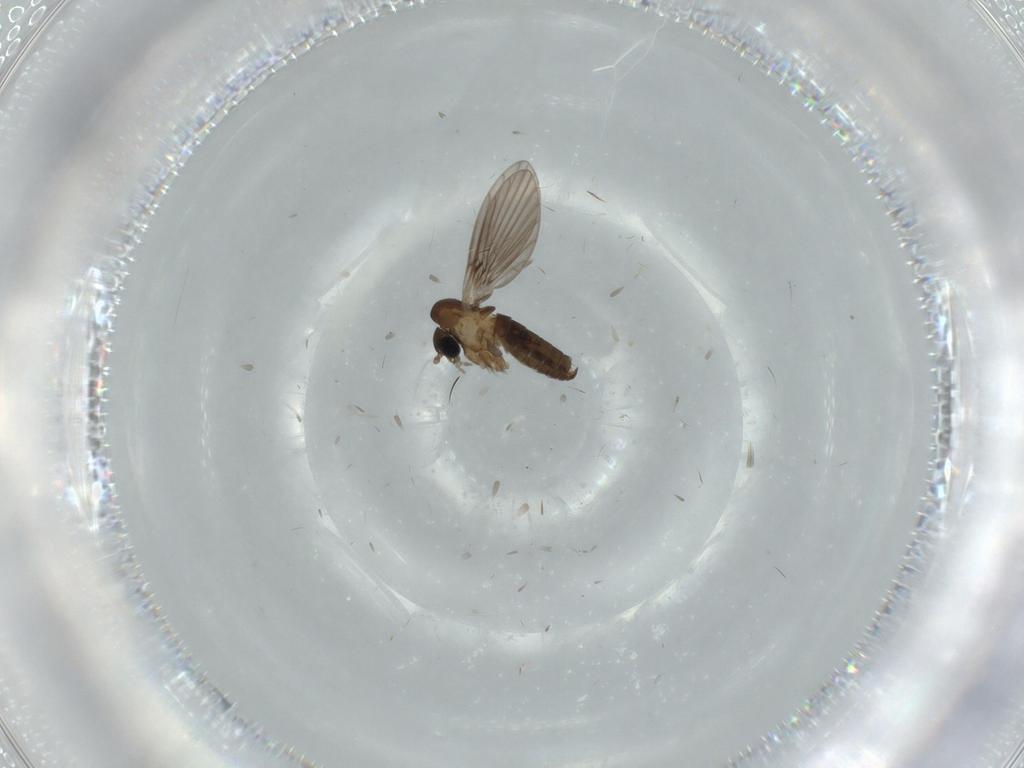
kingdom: Animalia
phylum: Arthropoda
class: Insecta
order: Diptera
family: Psychodidae
